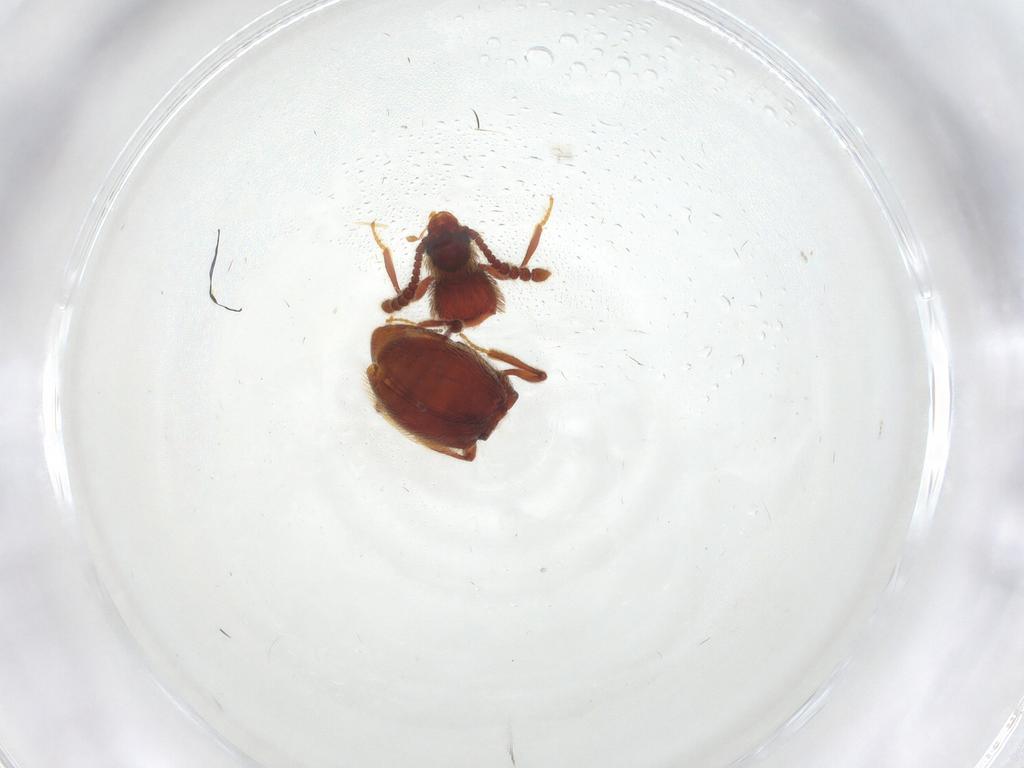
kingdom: Animalia
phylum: Arthropoda
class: Insecta
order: Coleoptera
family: Staphylinidae
